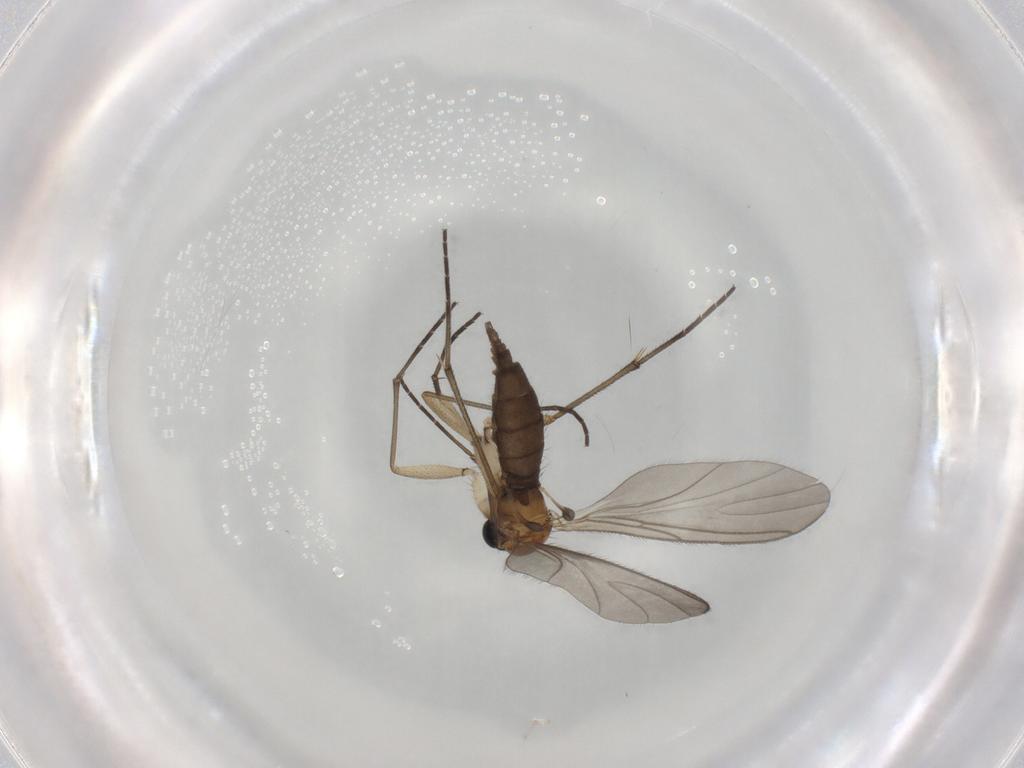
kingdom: Animalia
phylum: Arthropoda
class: Insecta
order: Diptera
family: Sciaridae
